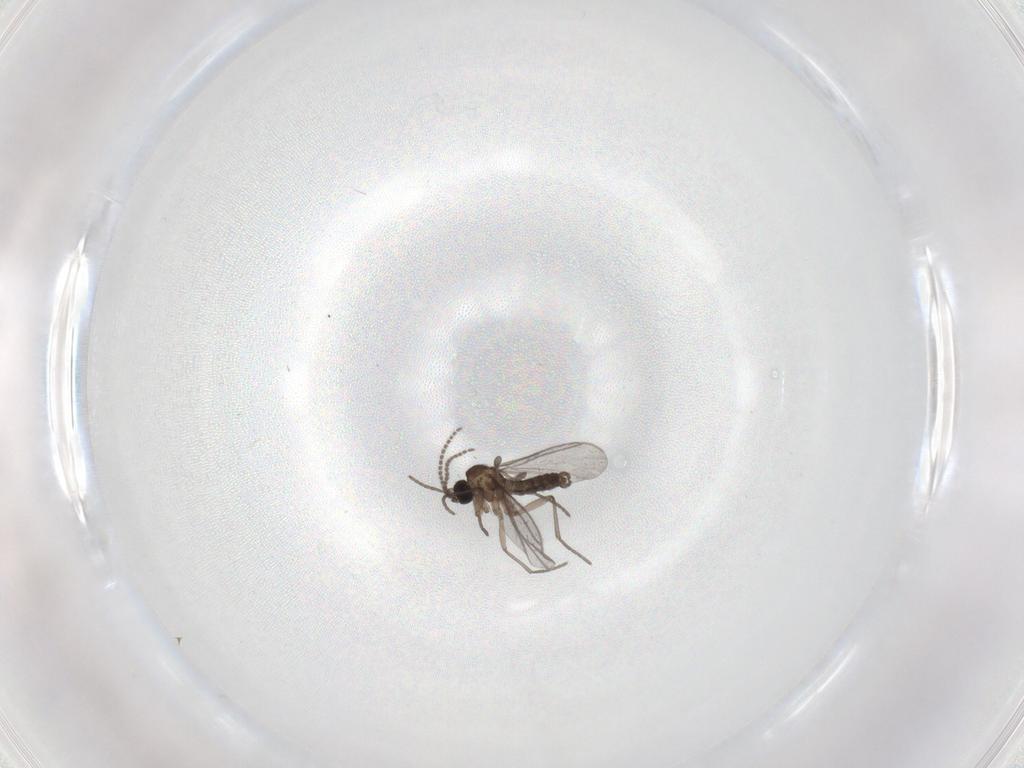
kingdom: Animalia
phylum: Arthropoda
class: Insecta
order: Diptera
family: Sciaridae
